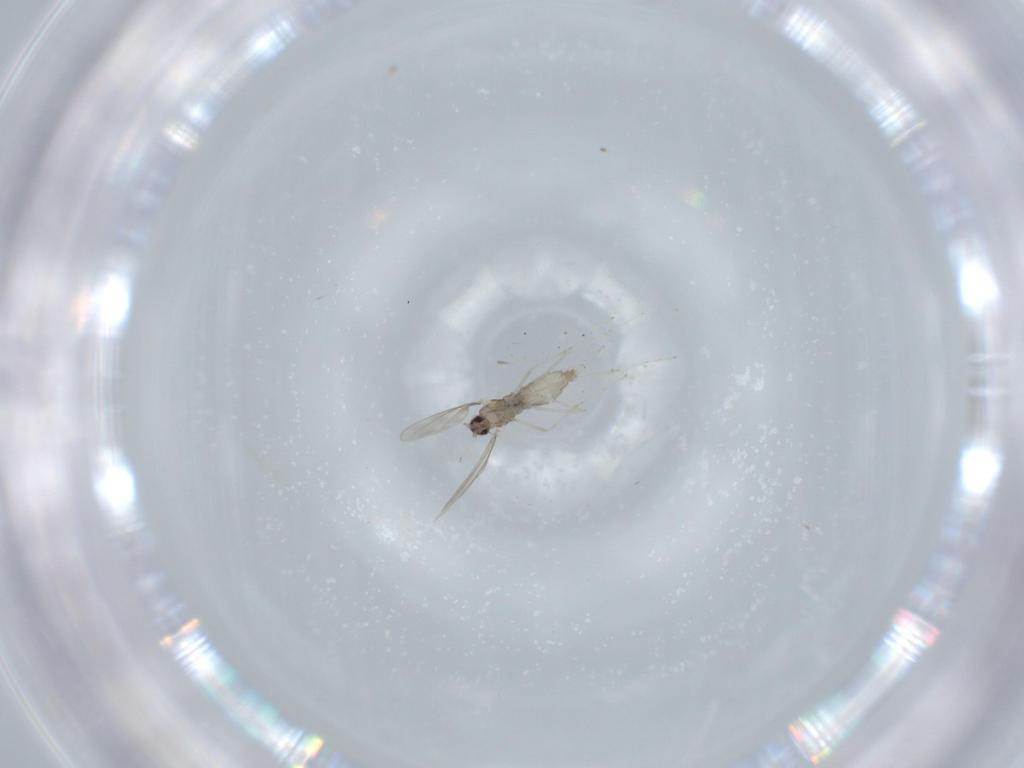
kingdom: Animalia
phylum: Arthropoda
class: Insecta
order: Diptera
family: Cecidomyiidae
